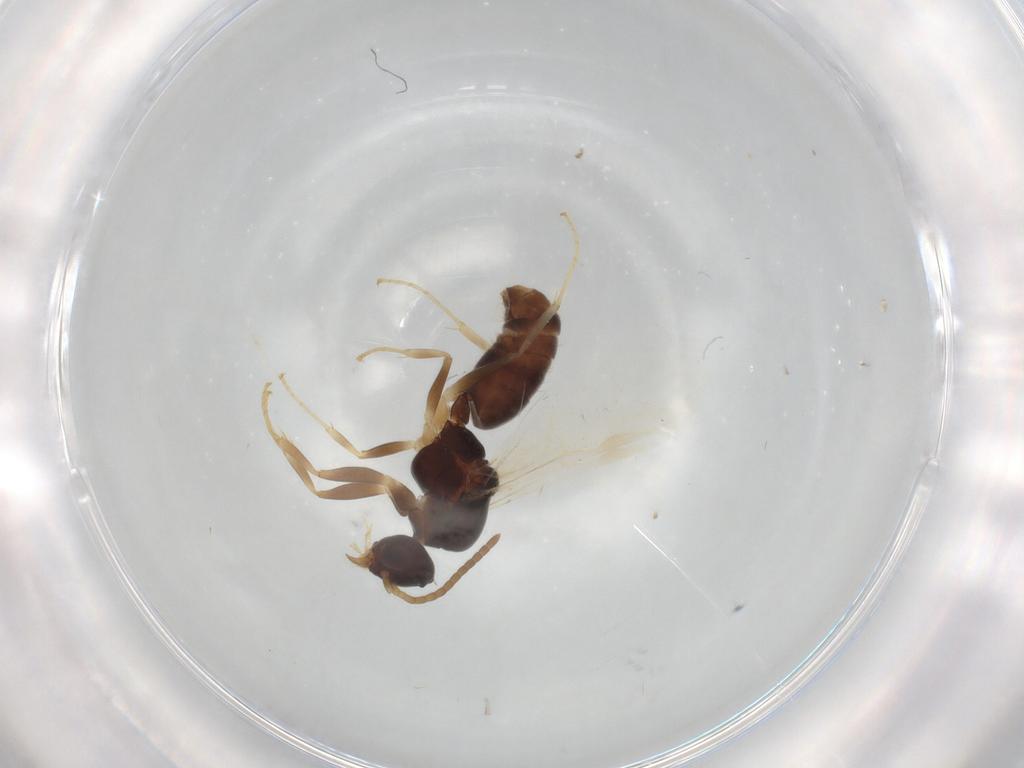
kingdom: Animalia
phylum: Arthropoda
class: Insecta
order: Hymenoptera
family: Formicidae
